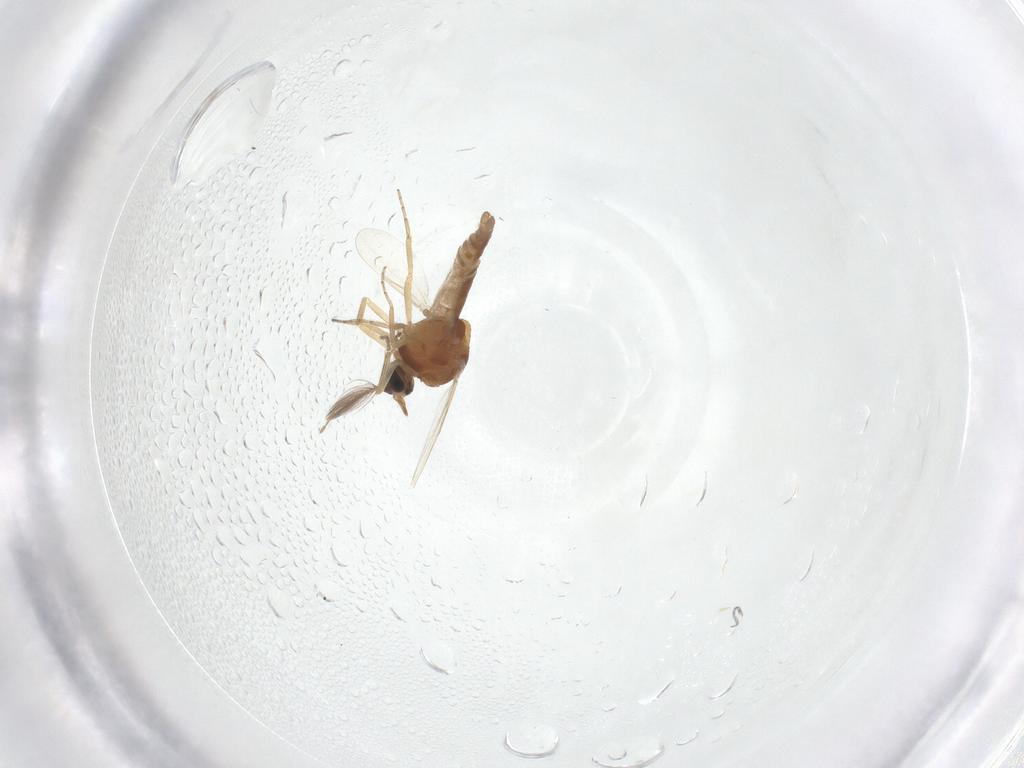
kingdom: Animalia
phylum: Arthropoda
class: Insecta
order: Diptera
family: Ceratopogonidae
